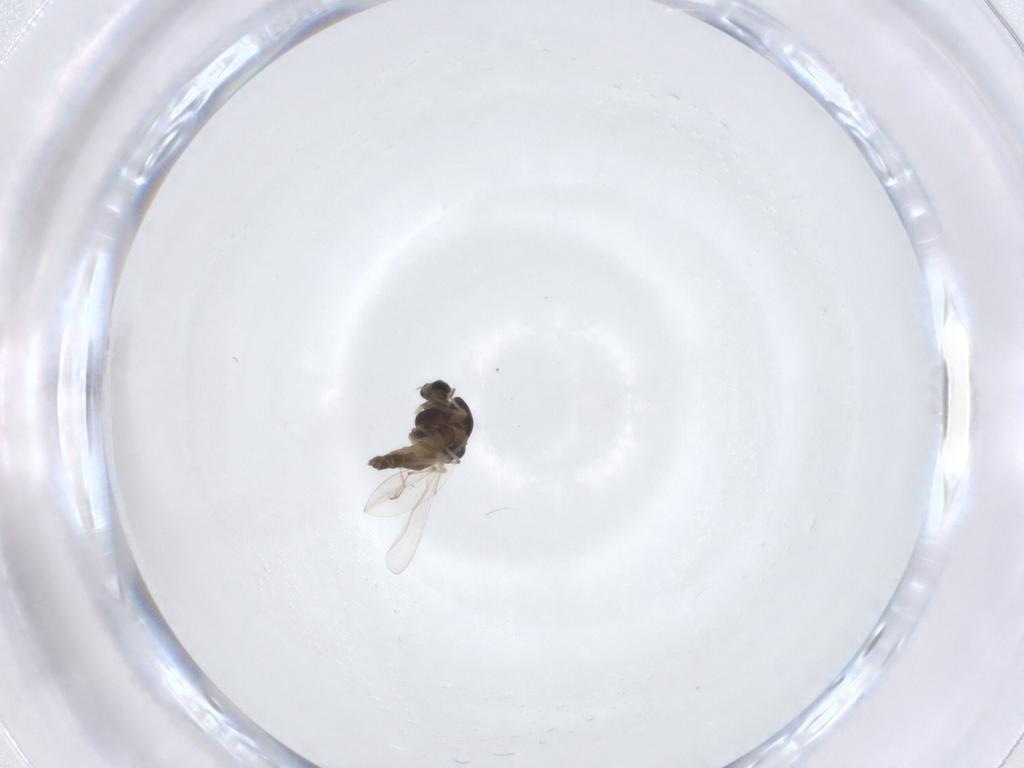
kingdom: Animalia
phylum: Arthropoda
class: Insecta
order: Diptera
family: Chironomidae
